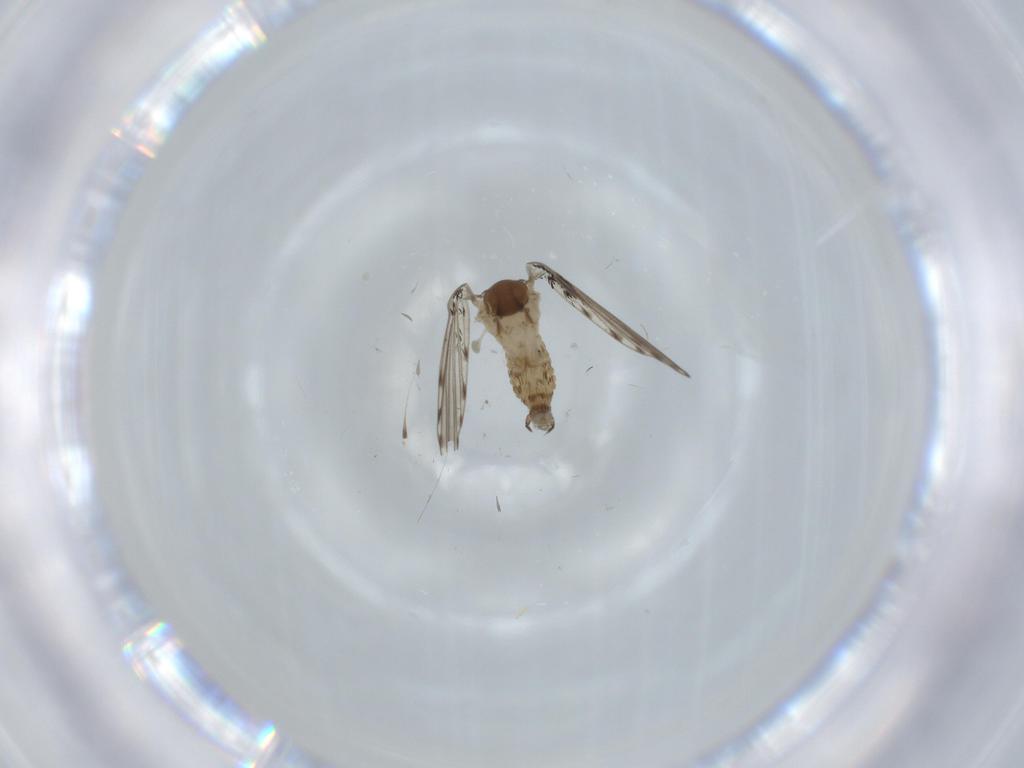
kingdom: Animalia
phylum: Arthropoda
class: Insecta
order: Diptera
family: Psychodidae
